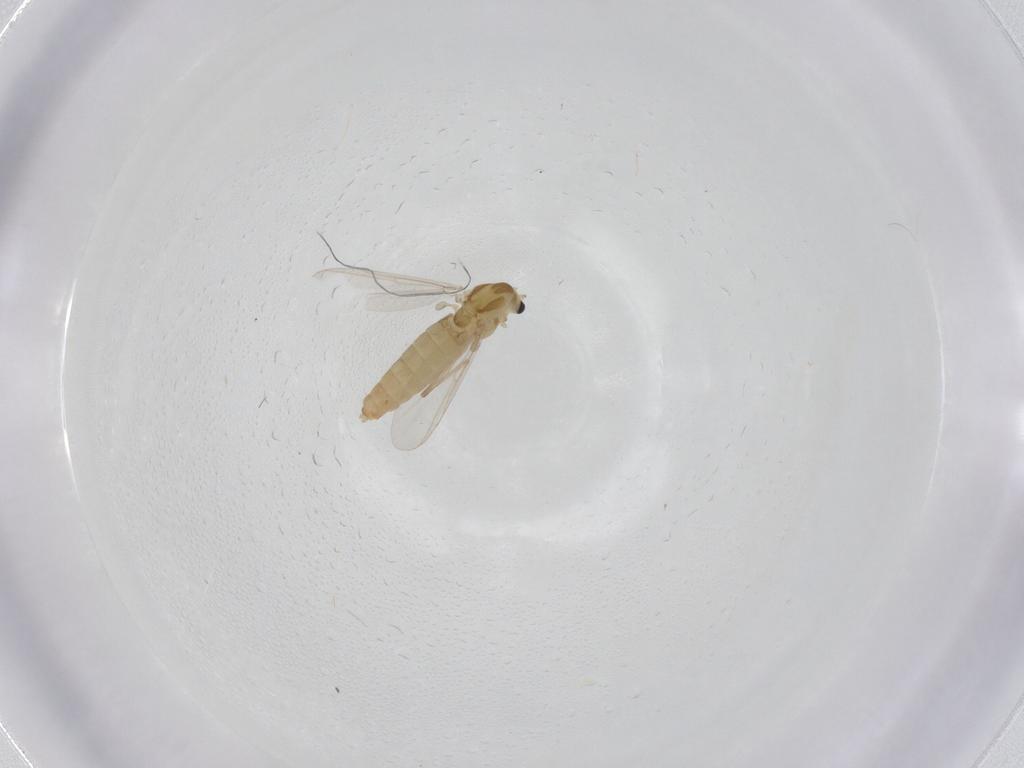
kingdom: Animalia
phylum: Arthropoda
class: Insecta
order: Diptera
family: Chironomidae
